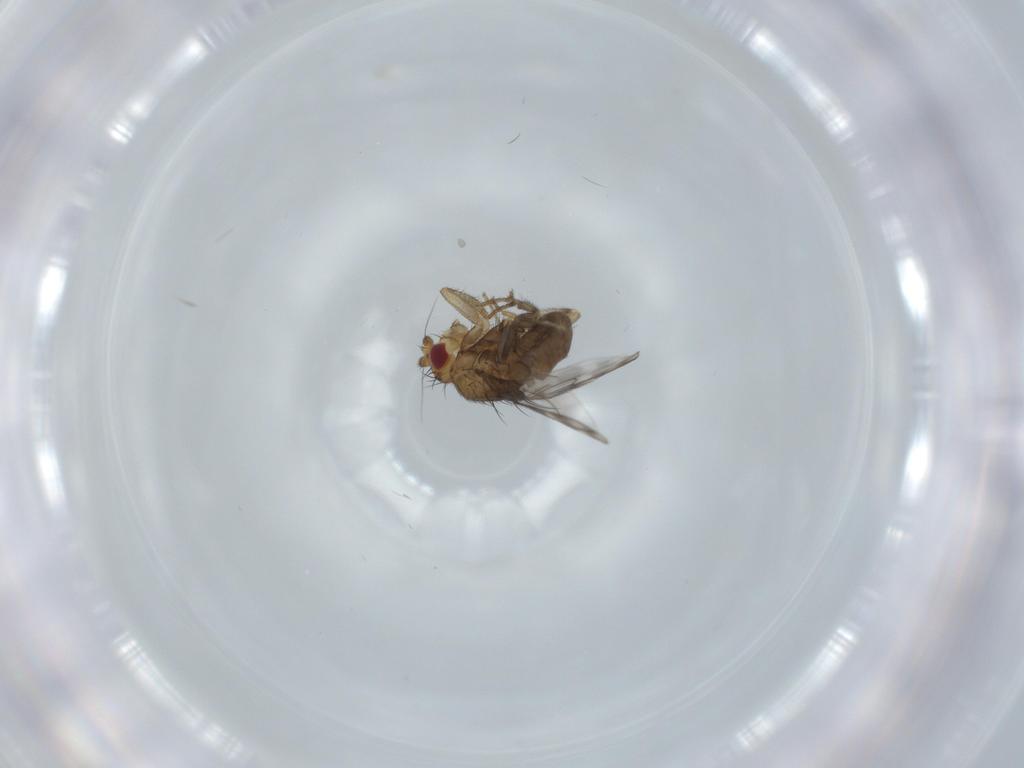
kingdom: Animalia
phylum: Arthropoda
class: Insecta
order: Diptera
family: Sphaeroceridae
